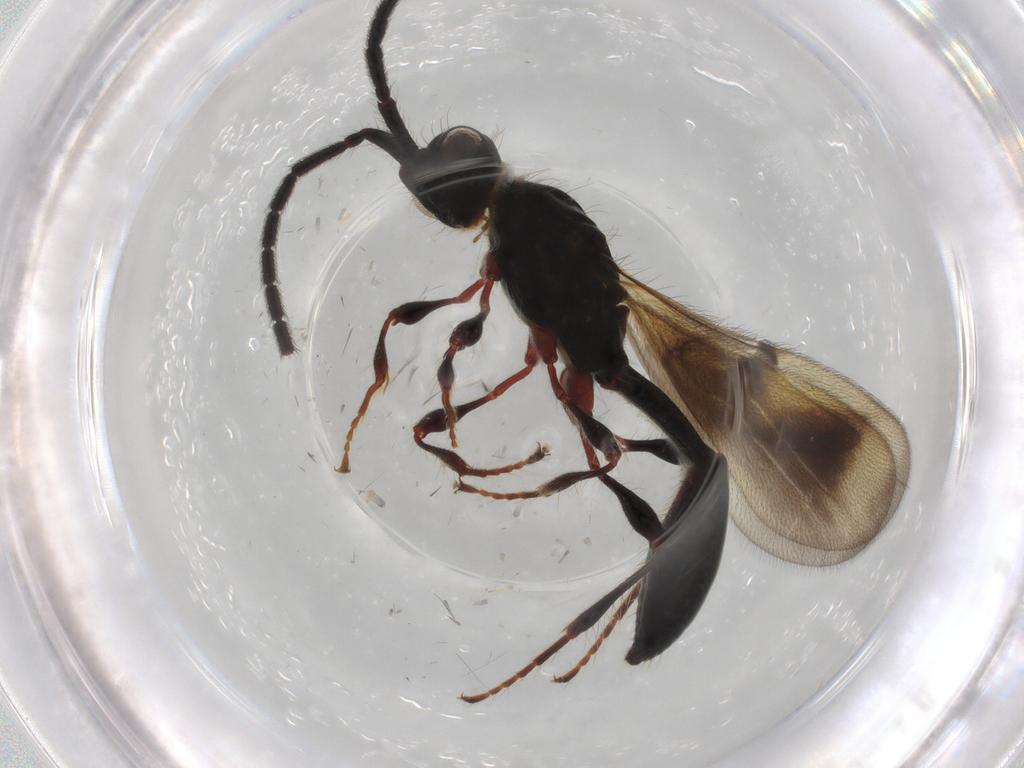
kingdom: Animalia
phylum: Arthropoda
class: Insecta
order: Hymenoptera
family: Diapriidae
